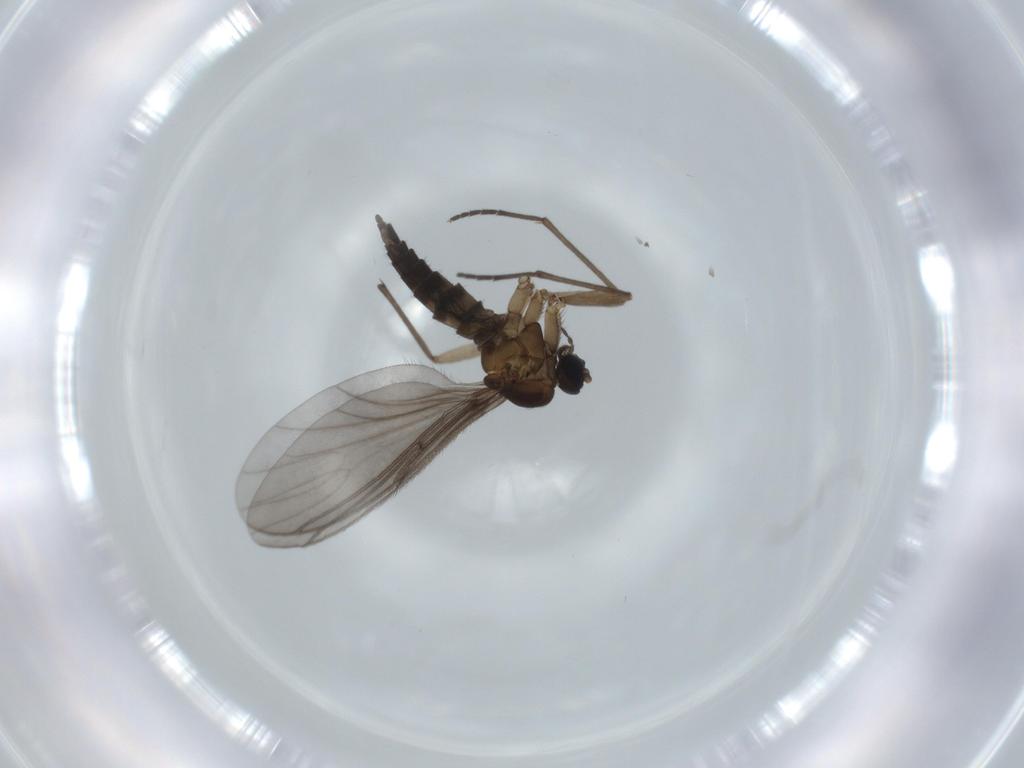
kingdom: Animalia
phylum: Arthropoda
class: Insecta
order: Diptera
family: Sciaridae
